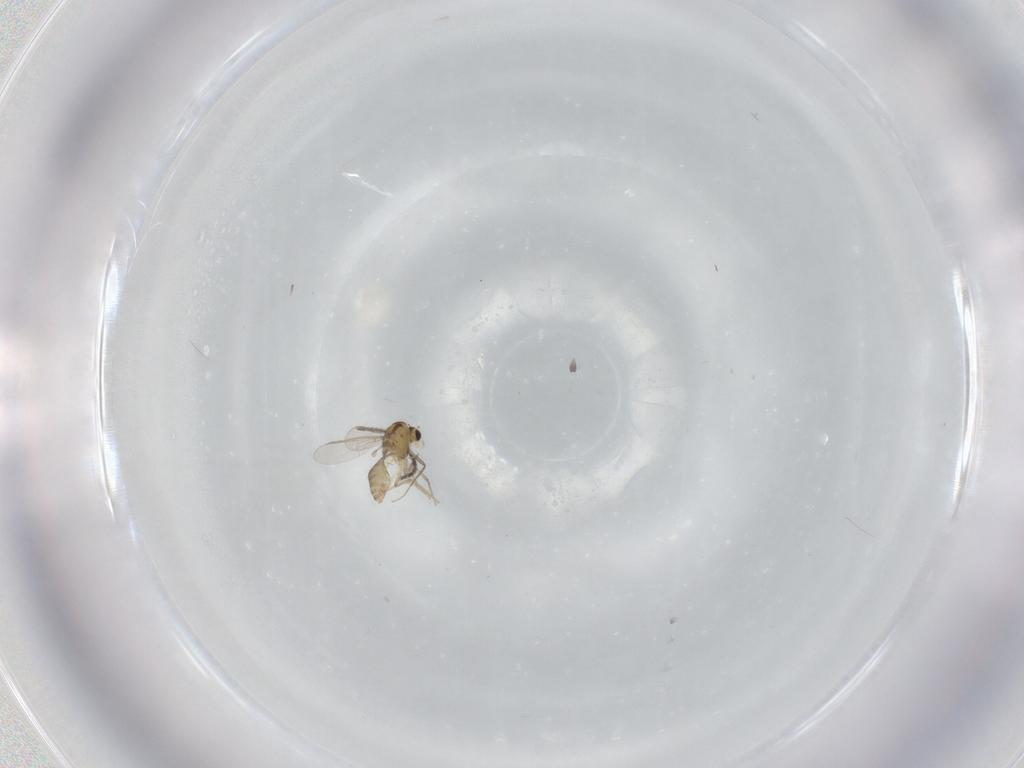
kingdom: Animalia
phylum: Arthropoda
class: Insecta
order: Diptera
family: Chironomidae
